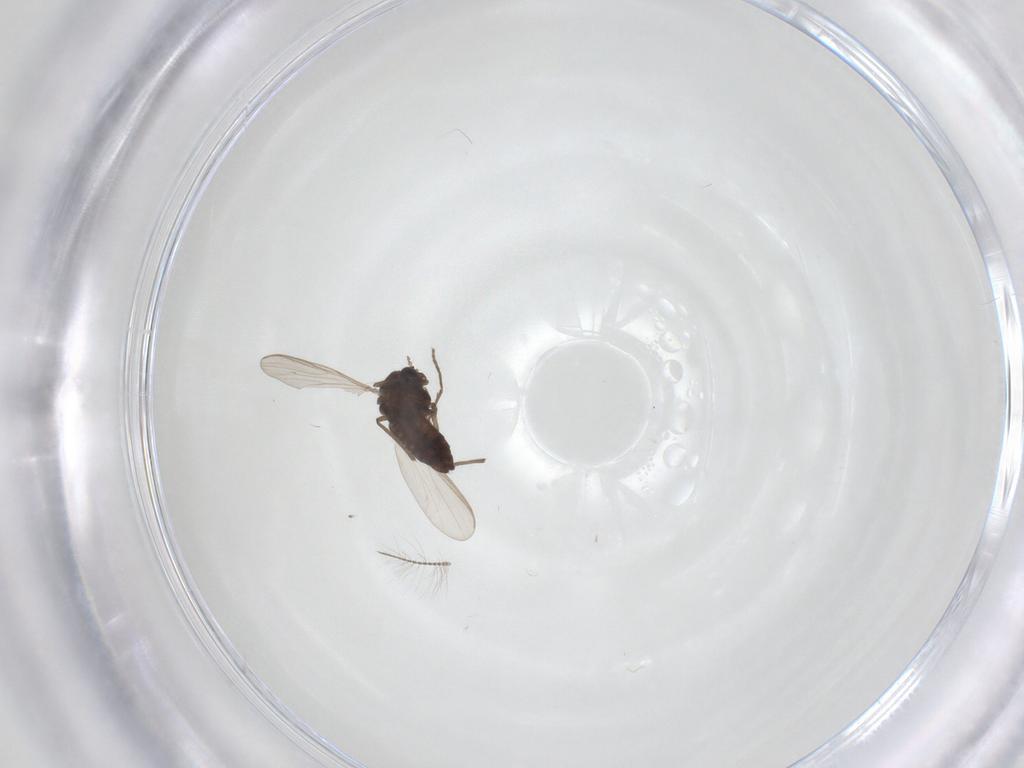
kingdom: Animalia
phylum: Arthropoda
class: Insecta
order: Diptera
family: Chironomidae
